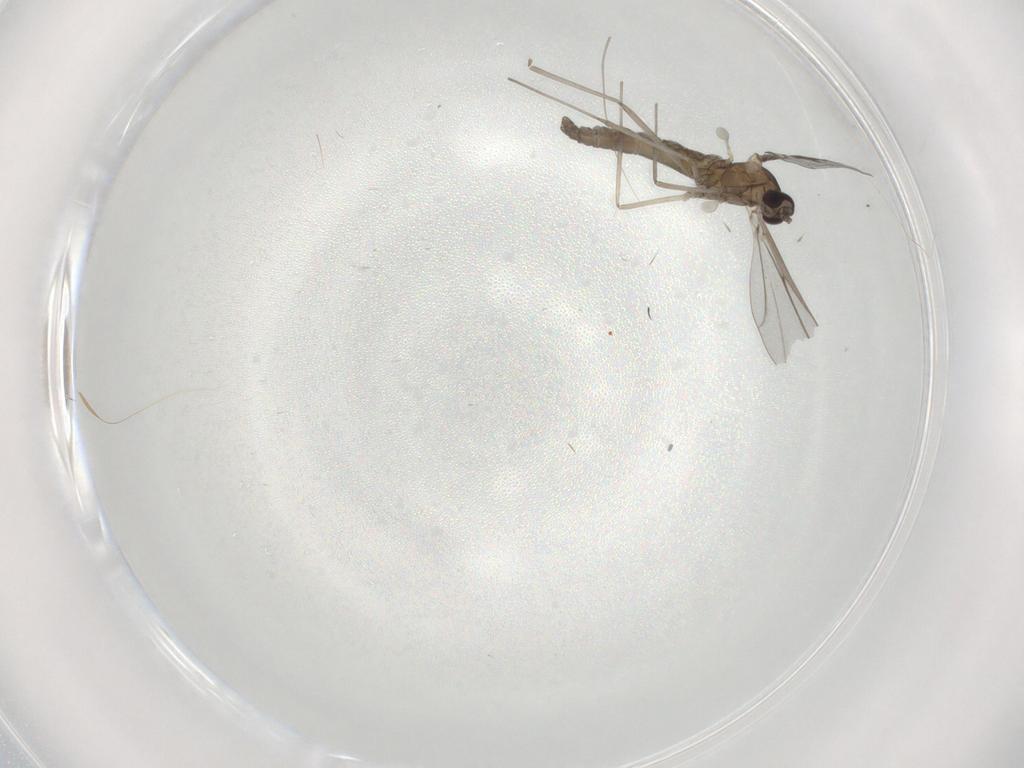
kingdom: Animalia
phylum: Arthropoda
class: Insecta
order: Diptera
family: Cecidomyiidae
